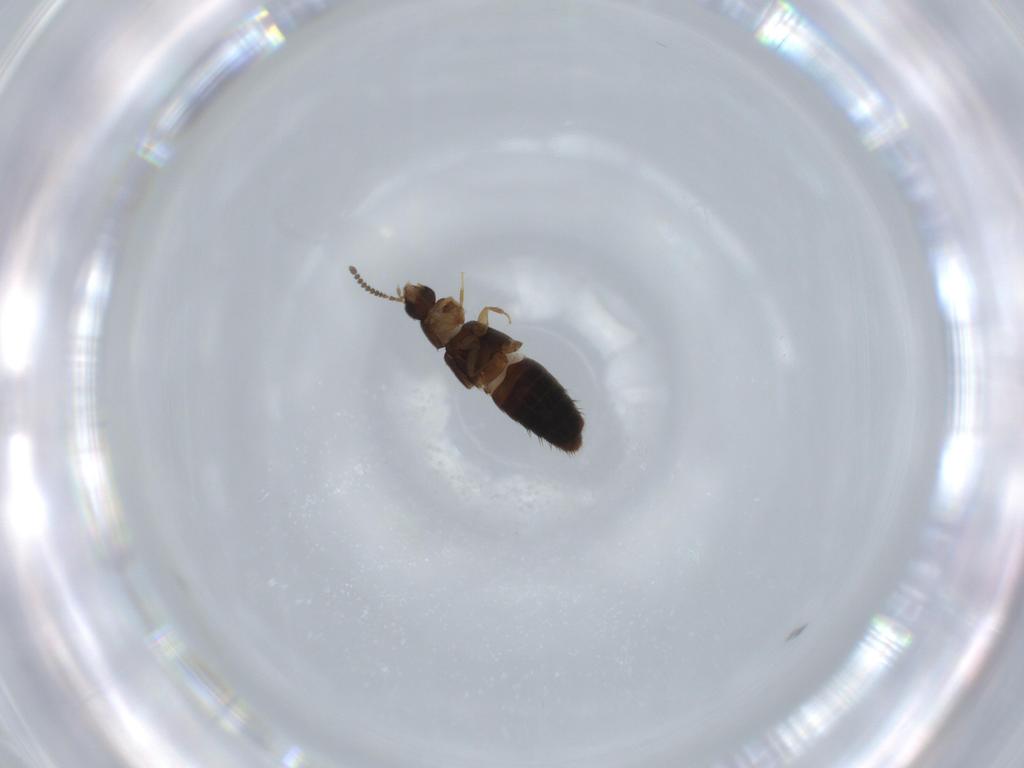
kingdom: Animalia
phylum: Arthropoda
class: Insecta
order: Coleoptera
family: Staphylinidae
